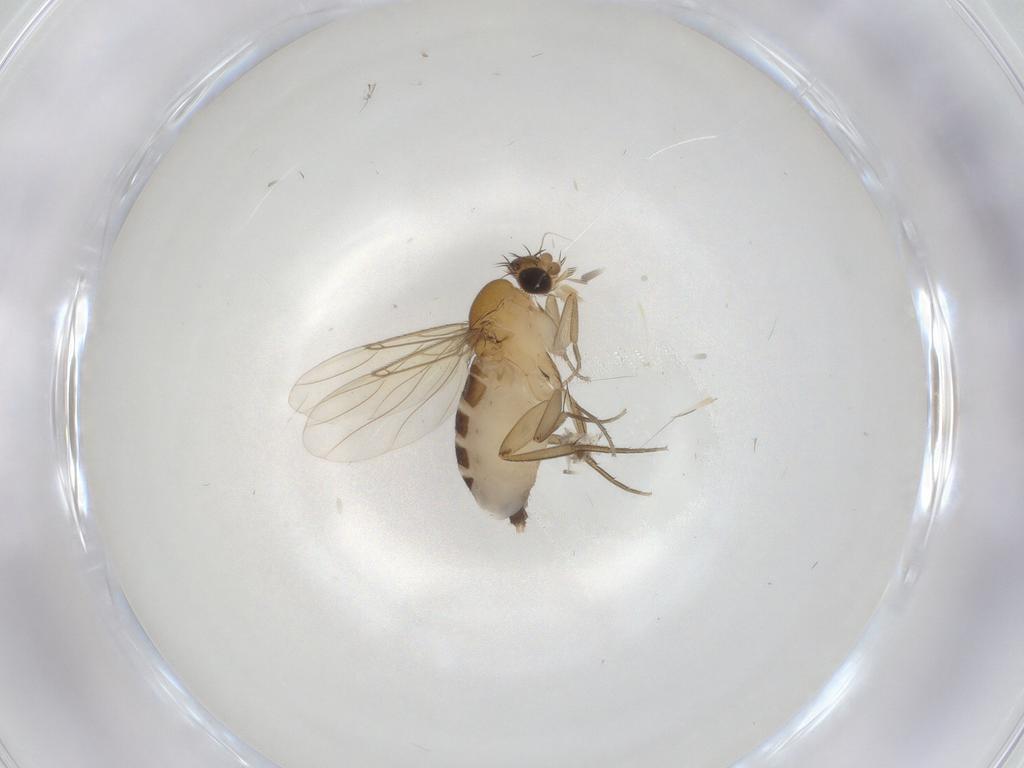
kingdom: Animalia
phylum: Arthropoda
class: Insecta
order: Diptera
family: Phoridae
